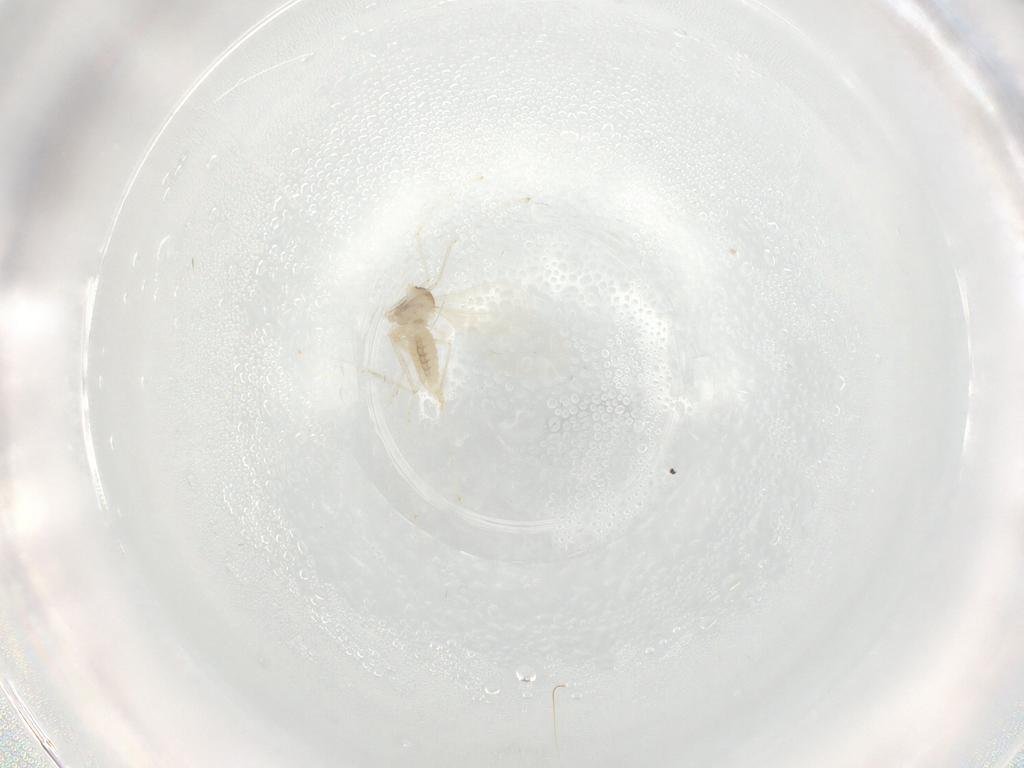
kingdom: Animalia
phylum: Arthropoda
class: Insecta
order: Diptera
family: Cecidomyiidae
